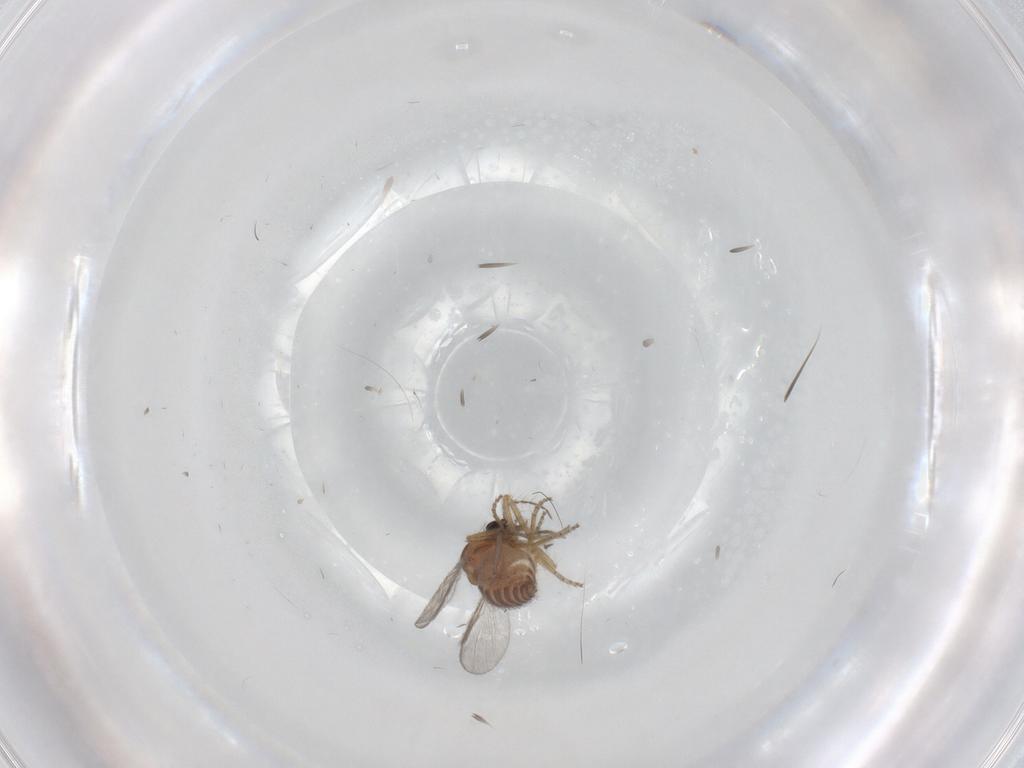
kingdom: Animalia
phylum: Arthropoda
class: Insecta
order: Diptera
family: Ceratopogonidae
